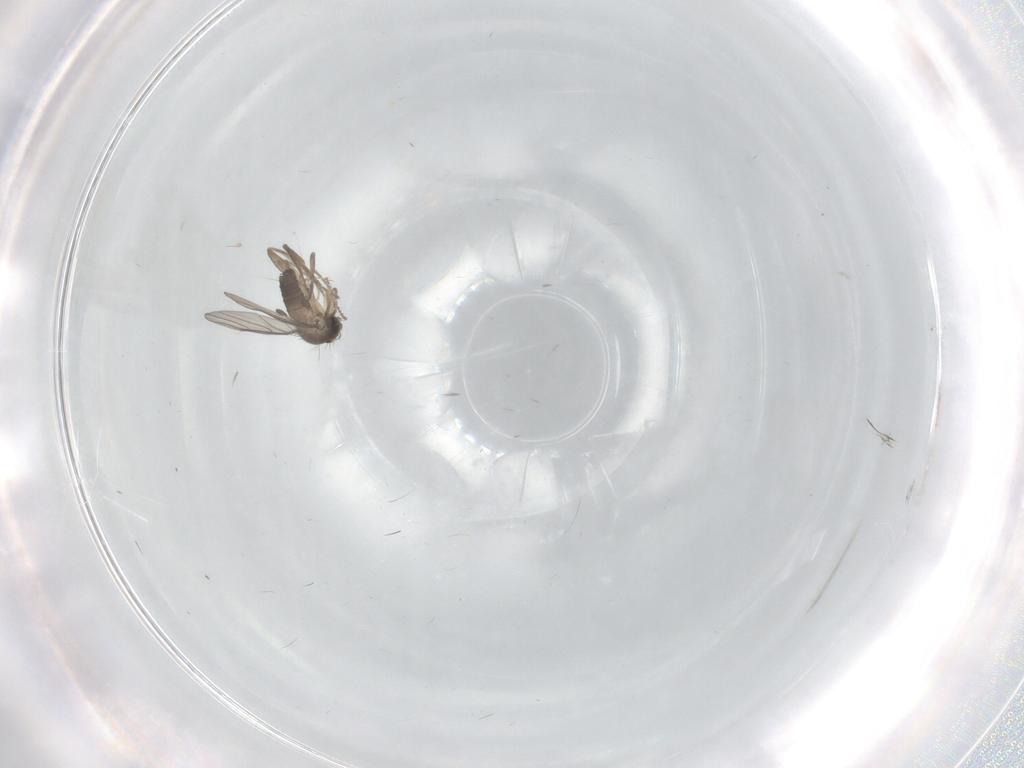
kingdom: Animalia
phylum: Arthropoda
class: Insecta
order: Diptera
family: Phoridae
